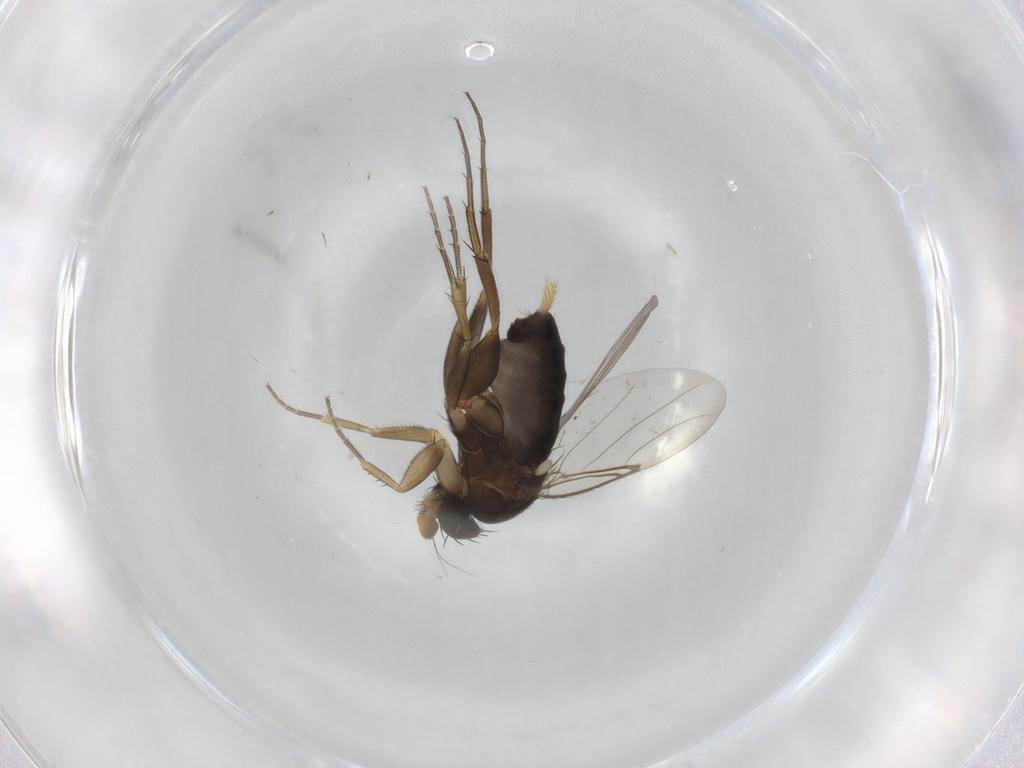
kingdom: Animalia
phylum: Arthropoda
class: Insecta
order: Diptera
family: Phoridae
